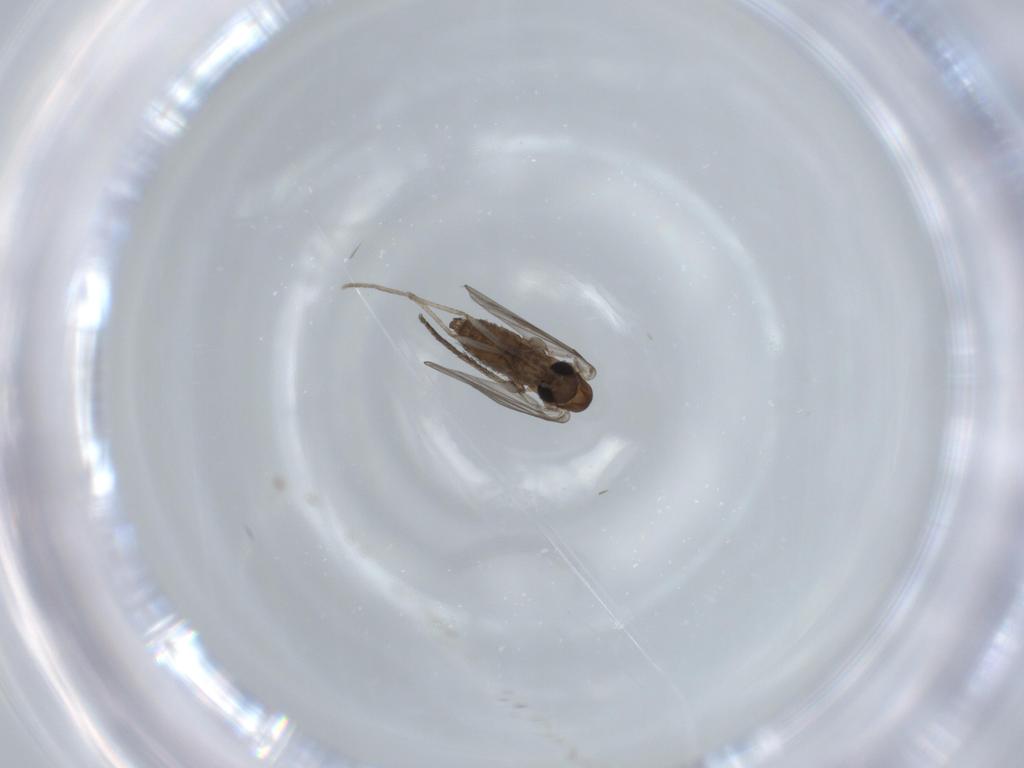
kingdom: Animalia
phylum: Arthropoda
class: Insecta
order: Diptera
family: Psychodidae
